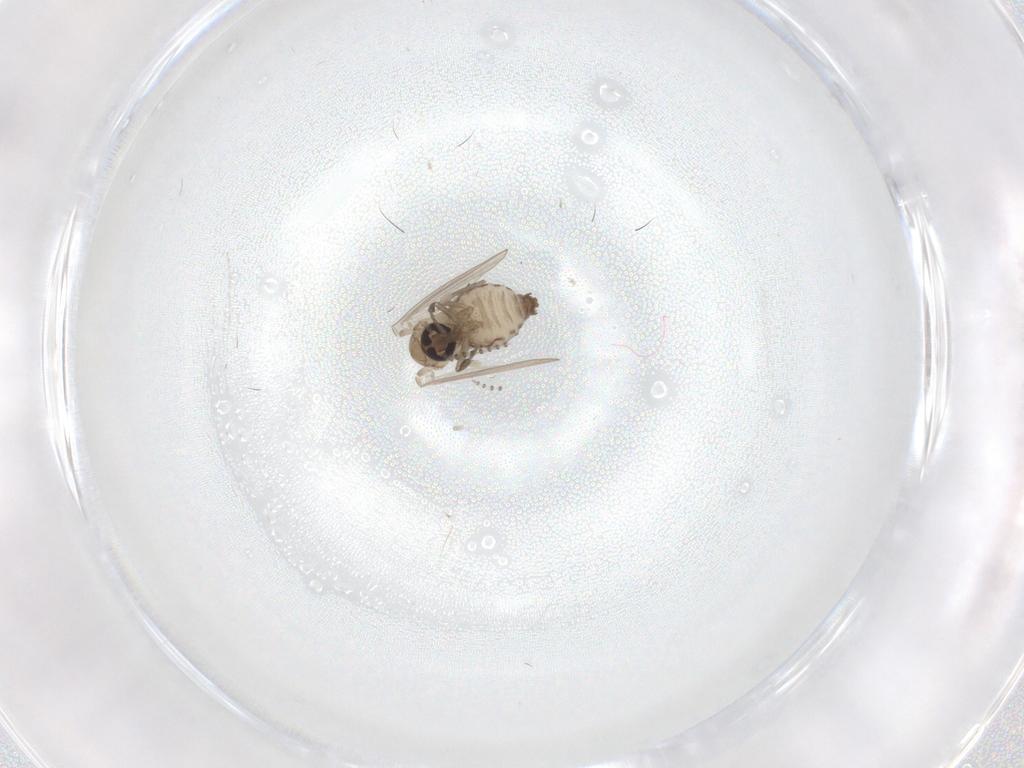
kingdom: Animalia
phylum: Arthropoda
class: Insecta
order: Diptera
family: Psychodidae
